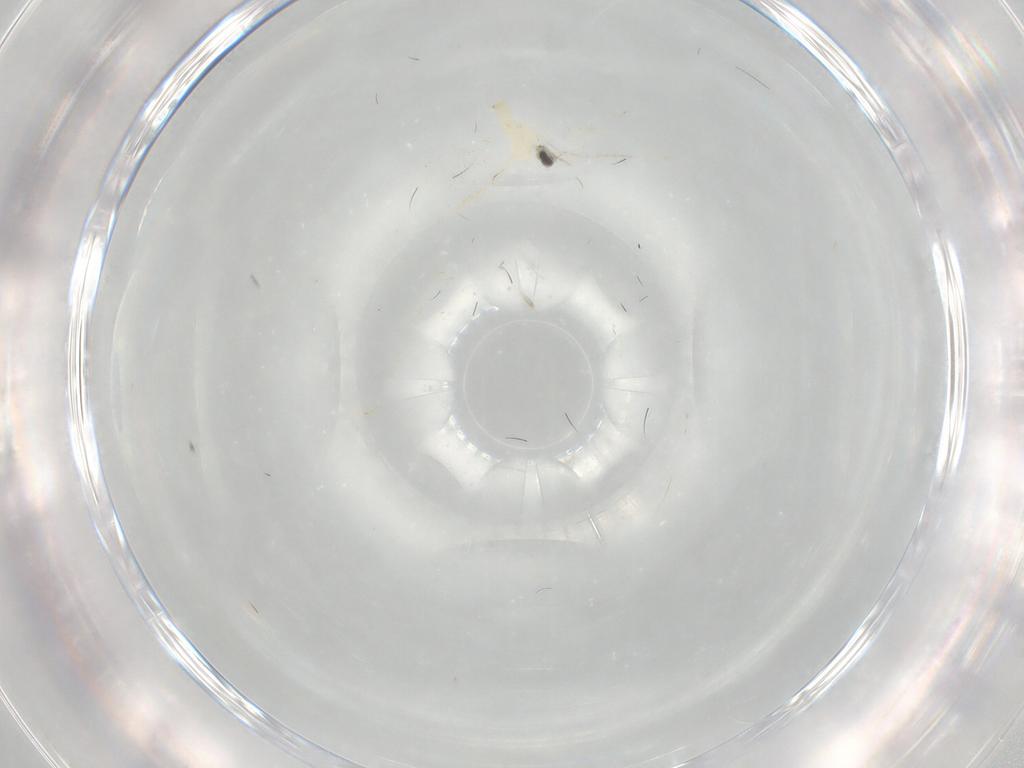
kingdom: Animalia
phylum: Arthropoda
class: Insecta
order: Diptera
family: Cecidomyiidae
